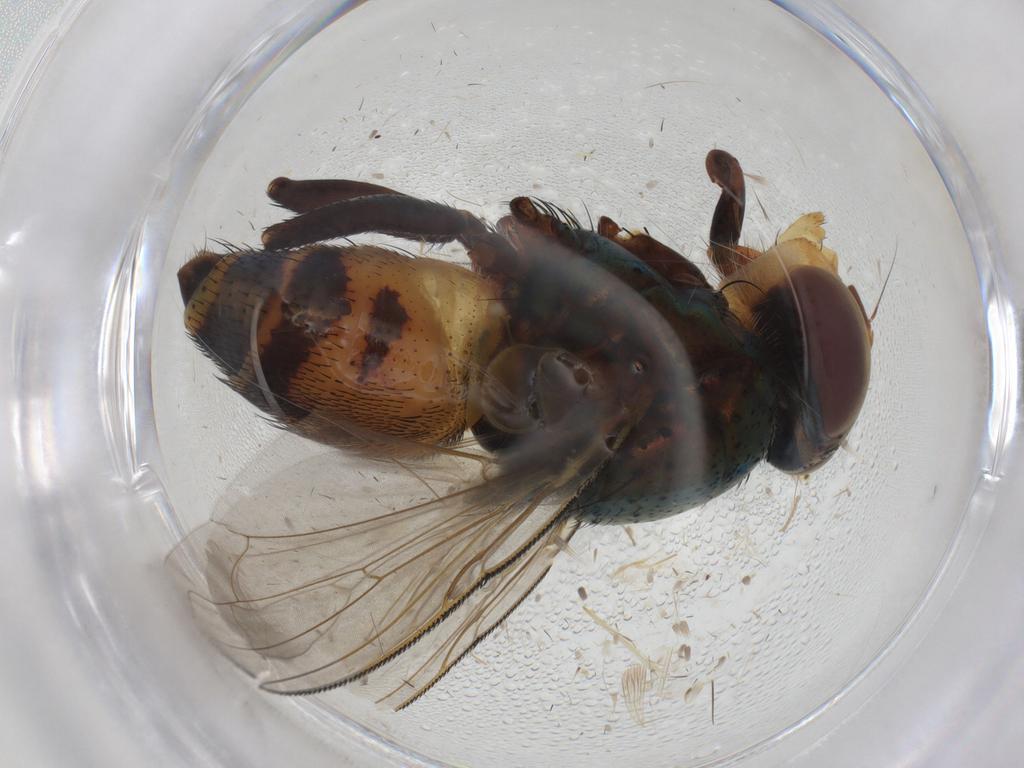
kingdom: Animalia
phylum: Arthropoda
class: Insecta
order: Diptera
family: Calliphoridae
